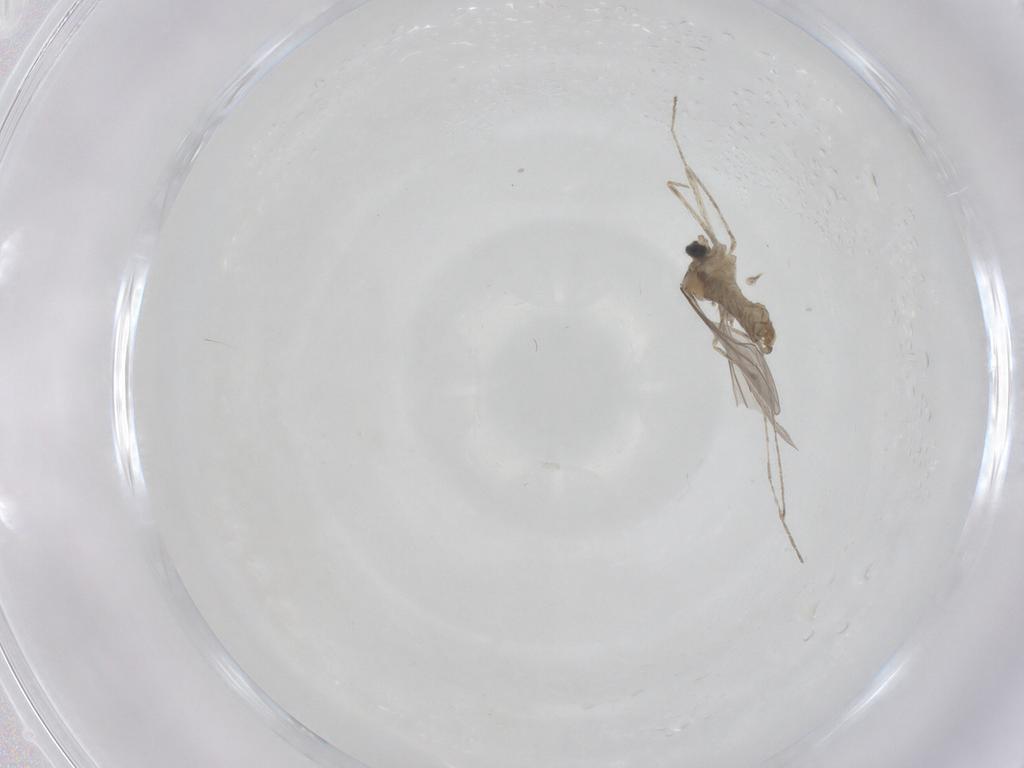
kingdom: Animalia
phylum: Arthropoda
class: Insecta
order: Diptera
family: Cecidomyiidae
